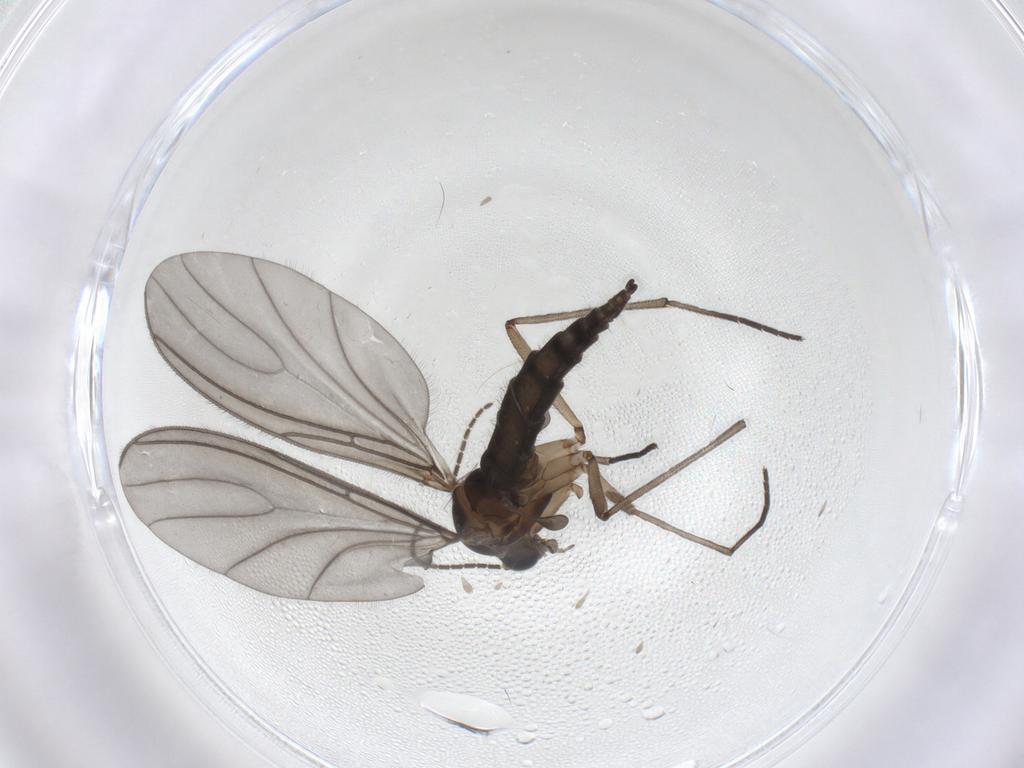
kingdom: Animalia
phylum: Arthropoda
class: Insecta
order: Diptera
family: Sciaridae
